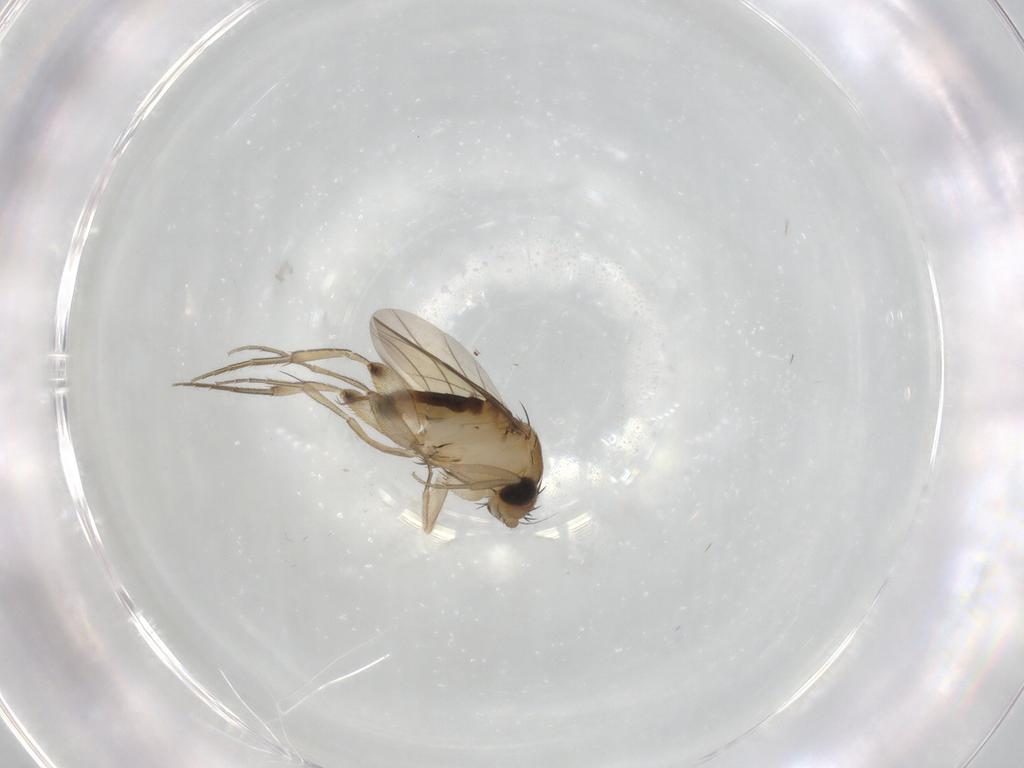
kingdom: Animalia
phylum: Arthropoda
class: Insecta
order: Diptera
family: Phoridae
